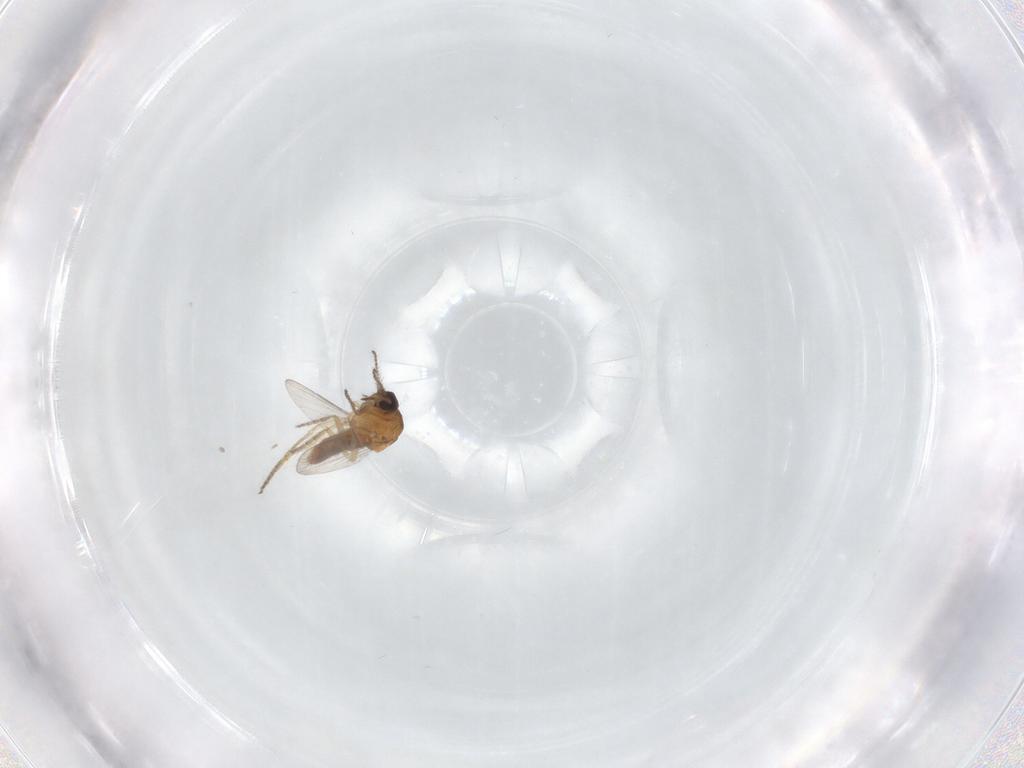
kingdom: Animalia
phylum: Arthropoda
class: Insecta
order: Diptera
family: Ceratopogonidae
